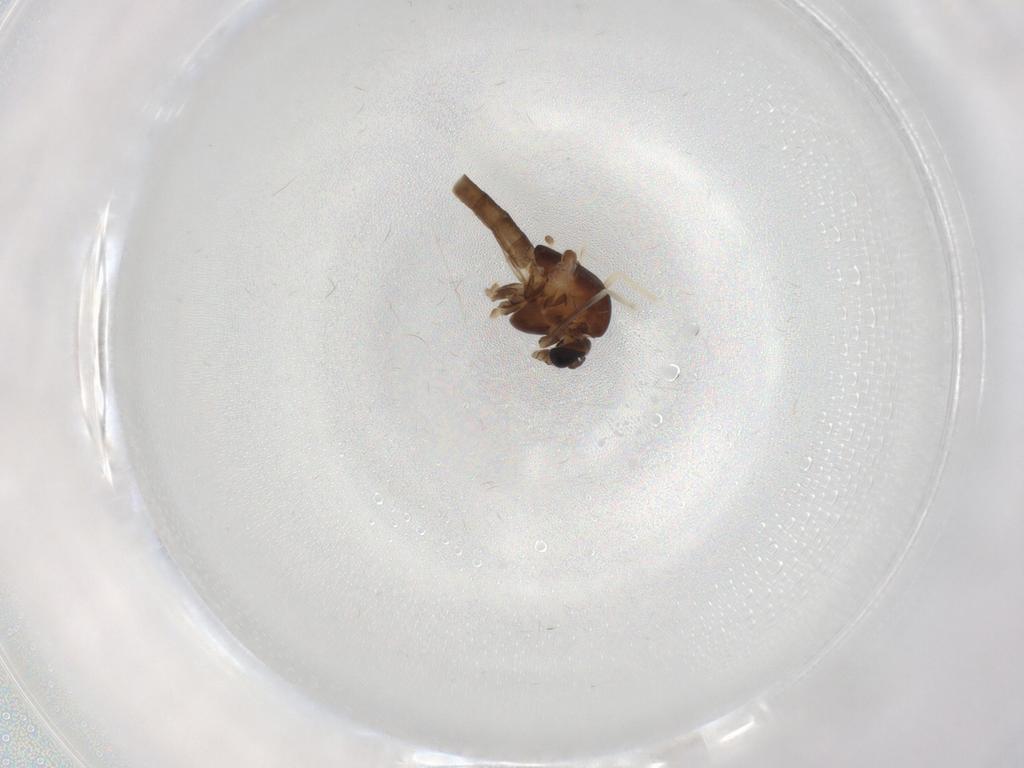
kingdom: Animalia
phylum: Arthropoda
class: Insecta
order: Diptera
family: Chironomidae
